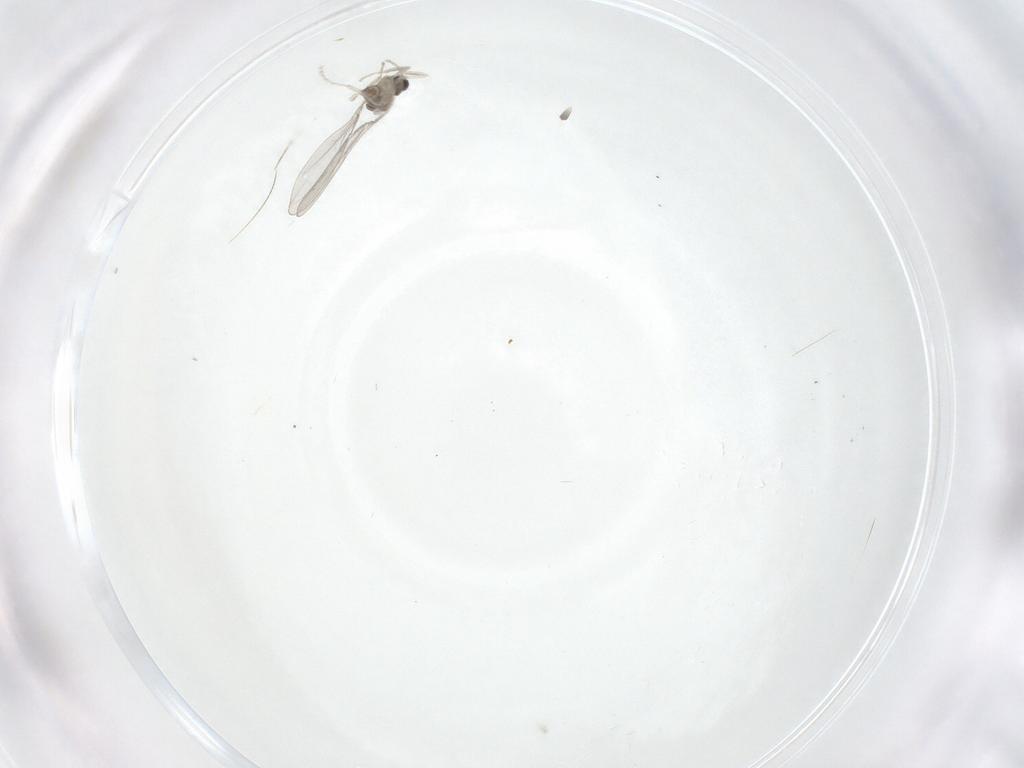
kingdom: Animalia
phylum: Arthropoda
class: Insecta
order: Diptera
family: Cecidomyiidae
